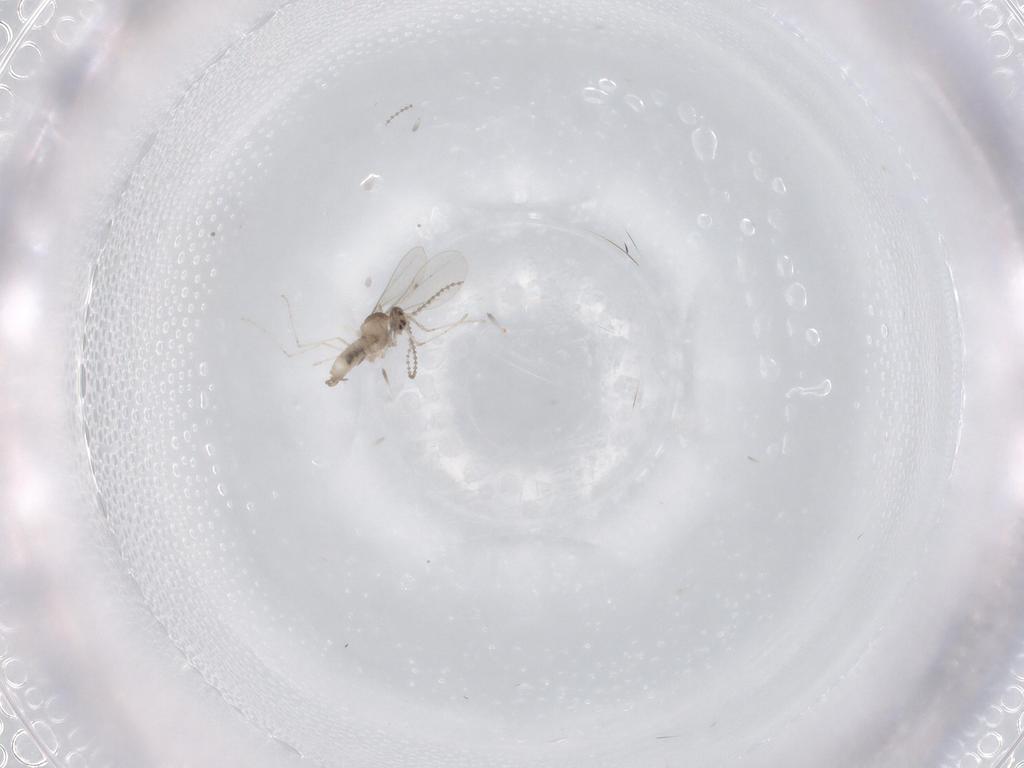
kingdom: Animalia
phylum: Arthropoda
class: Insecta
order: Diptera
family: Cecidomyiidae
